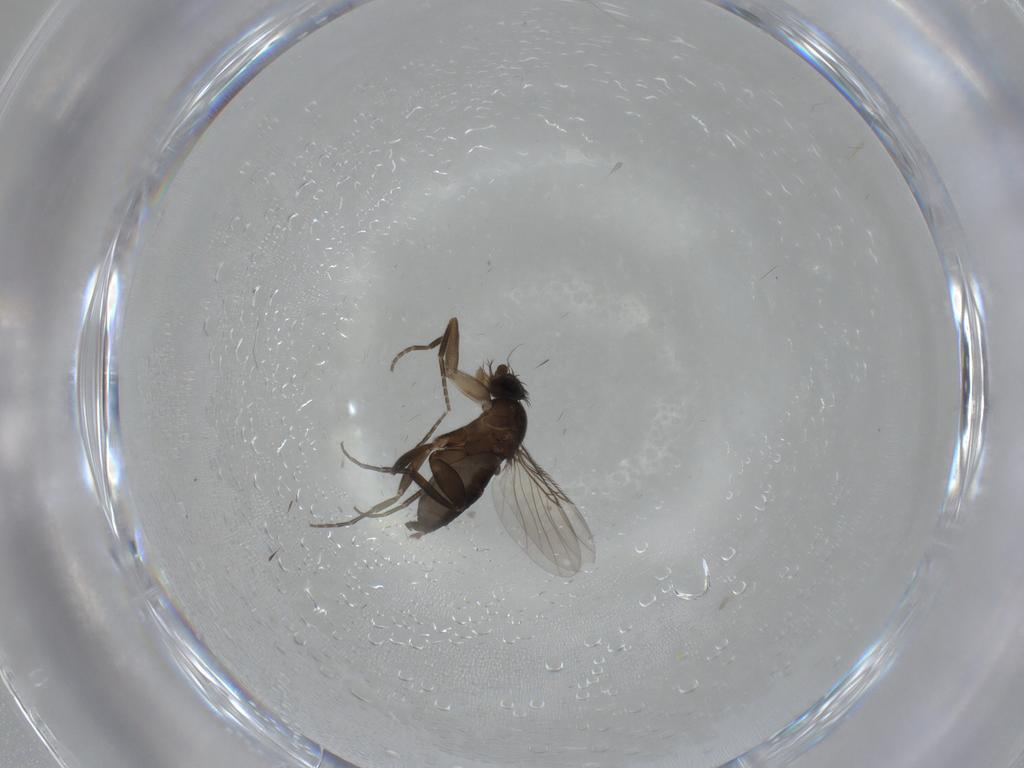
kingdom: Animalia
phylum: Arthropoda
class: Insecta
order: Diptera
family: Phoridae
